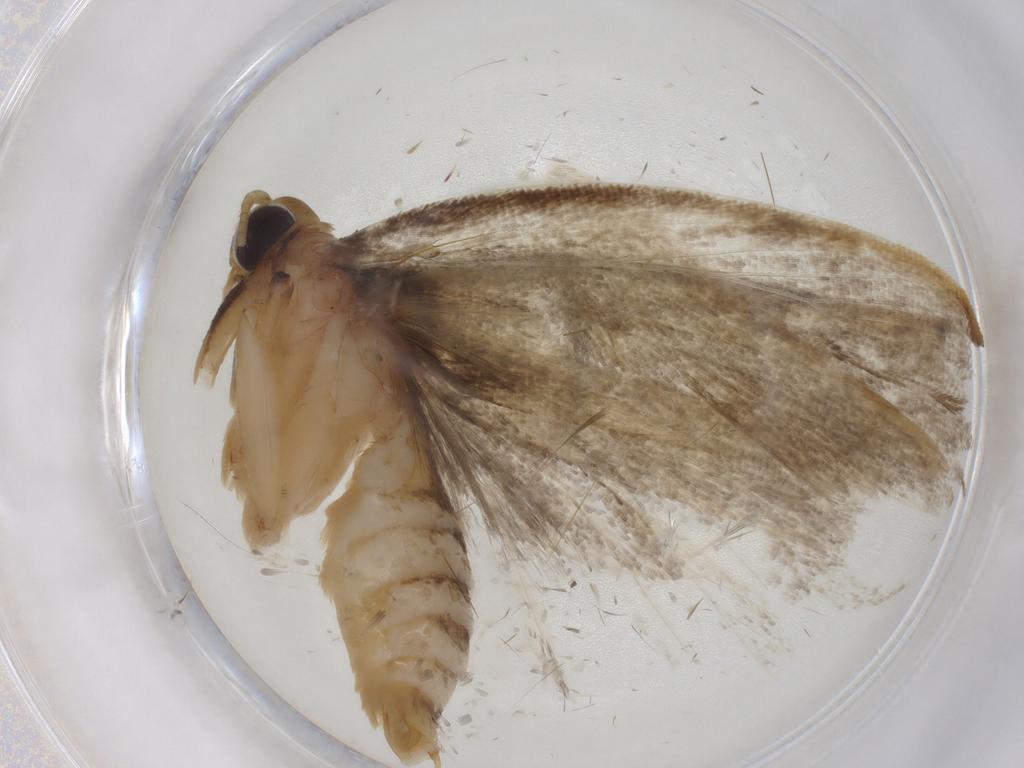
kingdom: Animalia
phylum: Arthropoda
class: Insecta
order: Lepidoptera
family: Depressariidae
